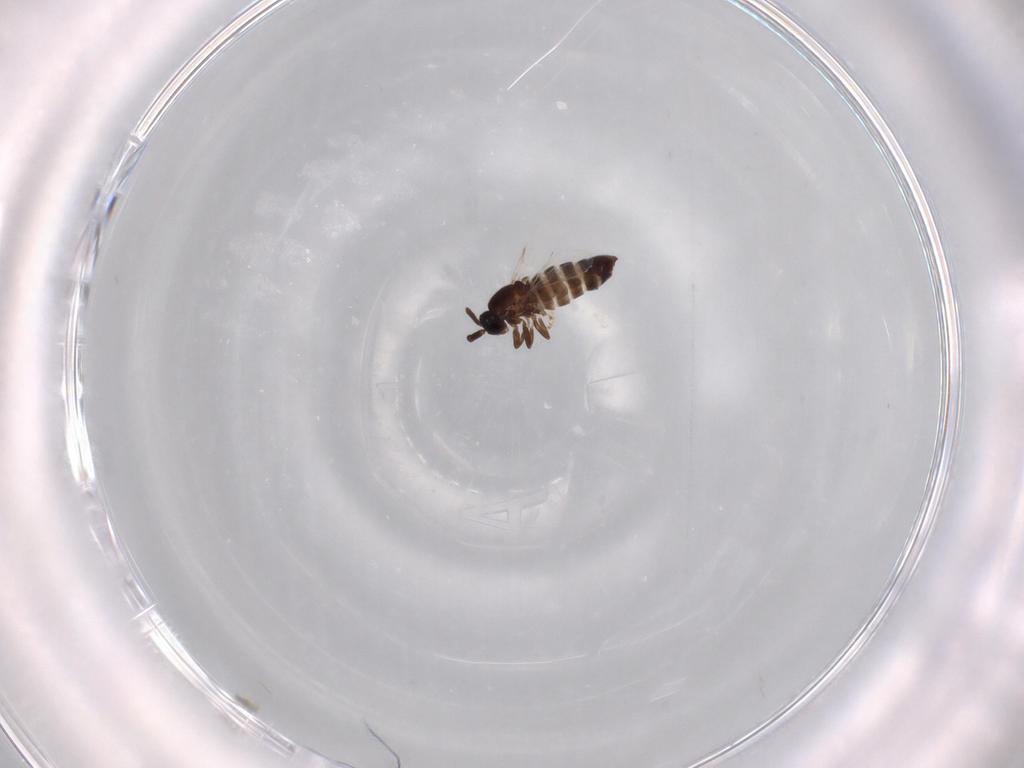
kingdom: Animalia
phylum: Arthropoda
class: Insecta
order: Diptera
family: Scatopsidae
